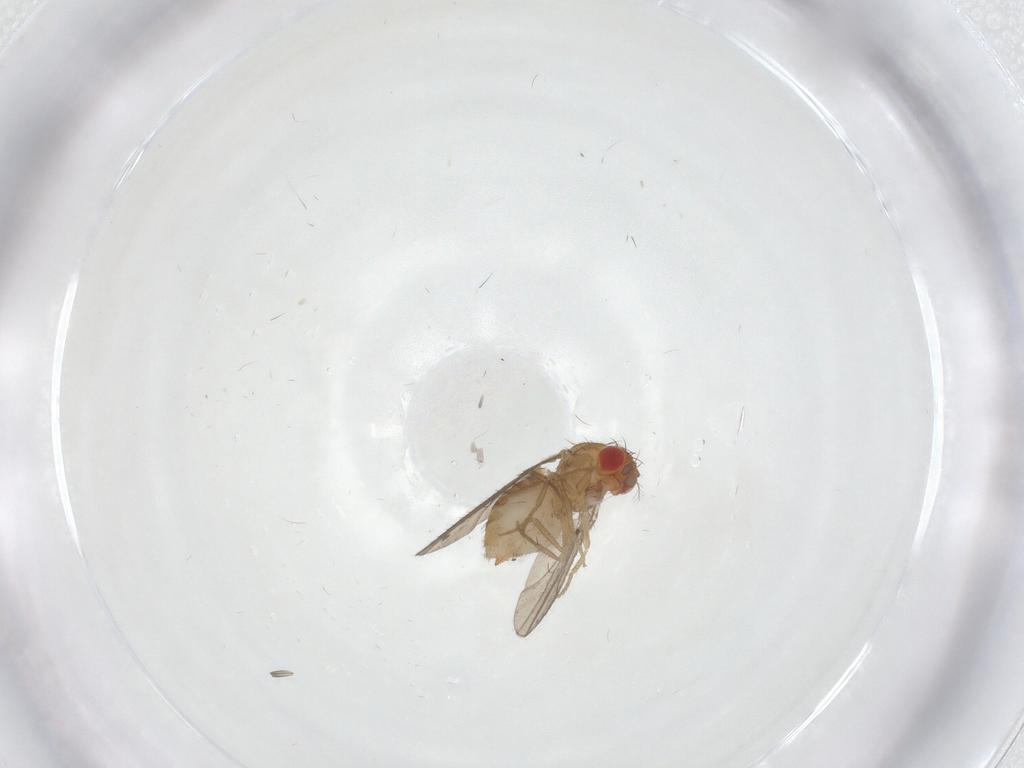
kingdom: Animalia
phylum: Arthropoda
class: Insecta
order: Diptera
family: Drosophilidae
